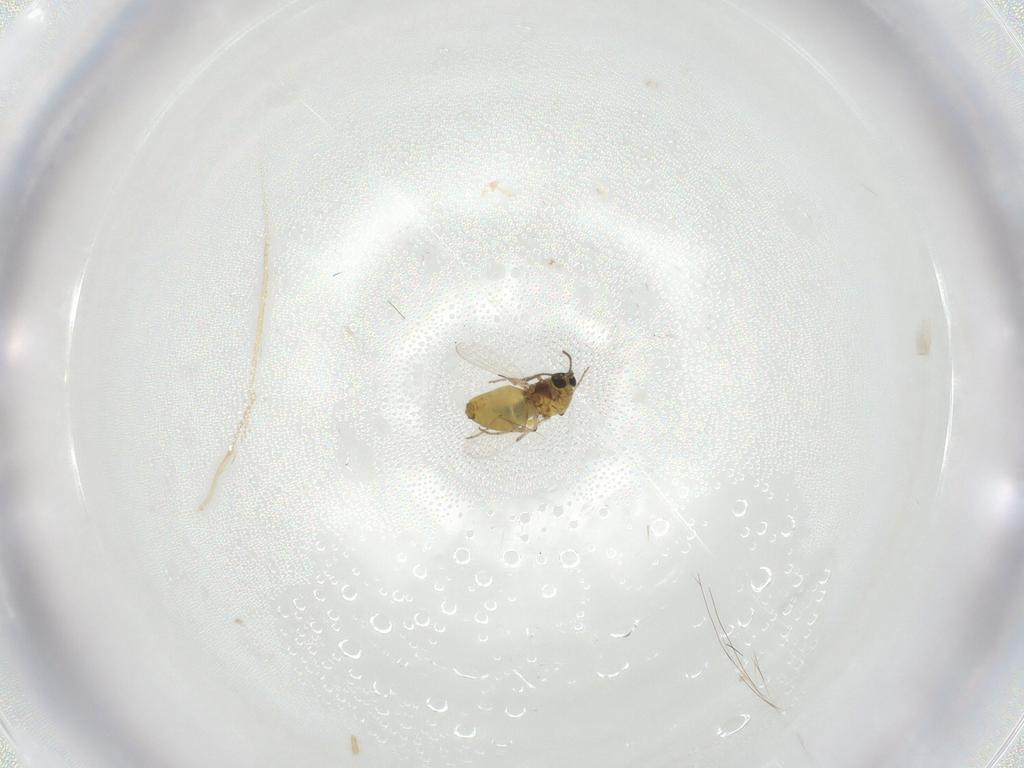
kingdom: Animalia
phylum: Arthropoda
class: Insecta
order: Diptera
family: Ceratopogonidae
